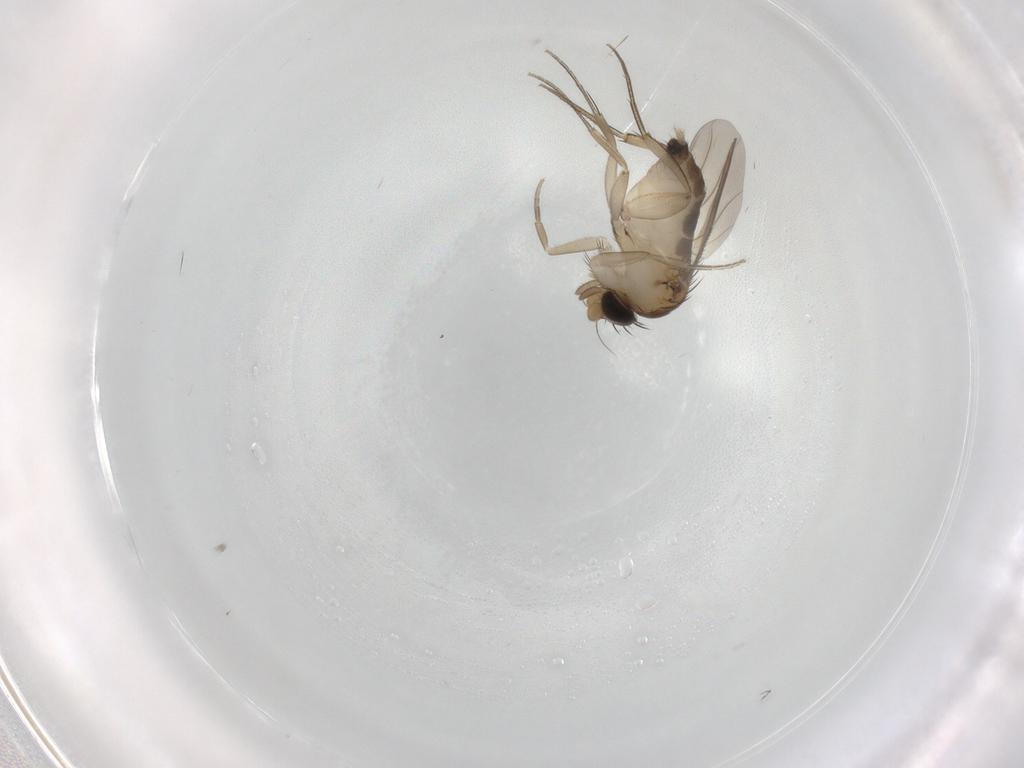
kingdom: Animalia
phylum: Arthropoda
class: Insecta
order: Diptera
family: Phoridae
